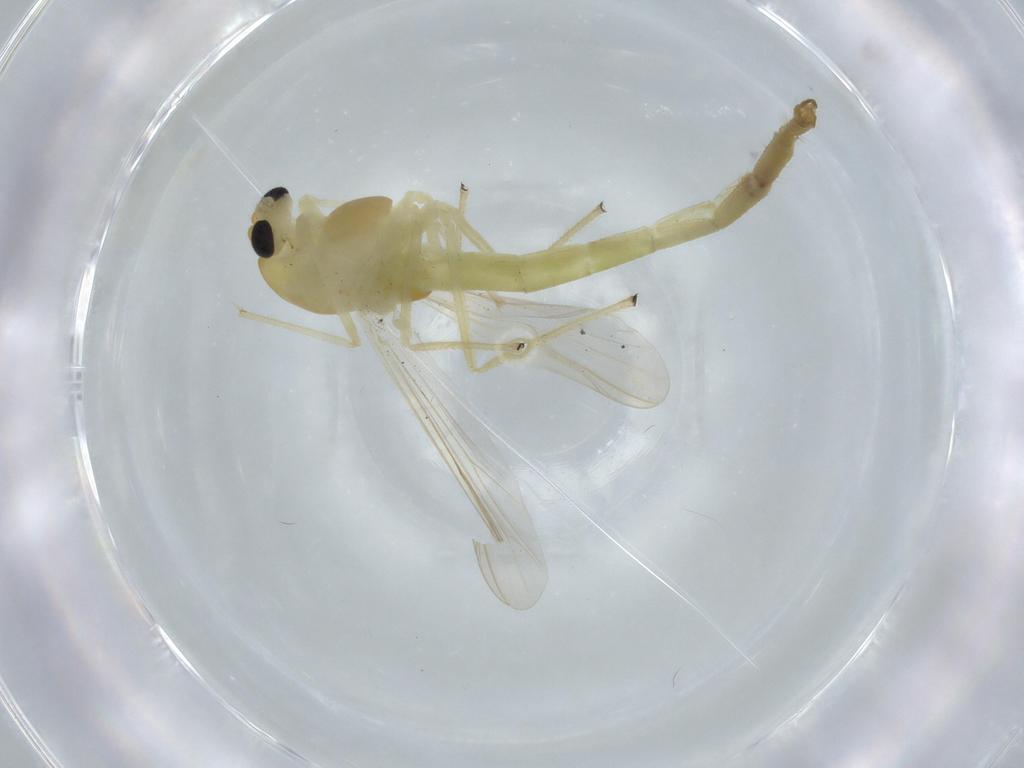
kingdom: Animalia
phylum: Arthropoda
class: Insecta
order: Diptera
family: Chironomidae
